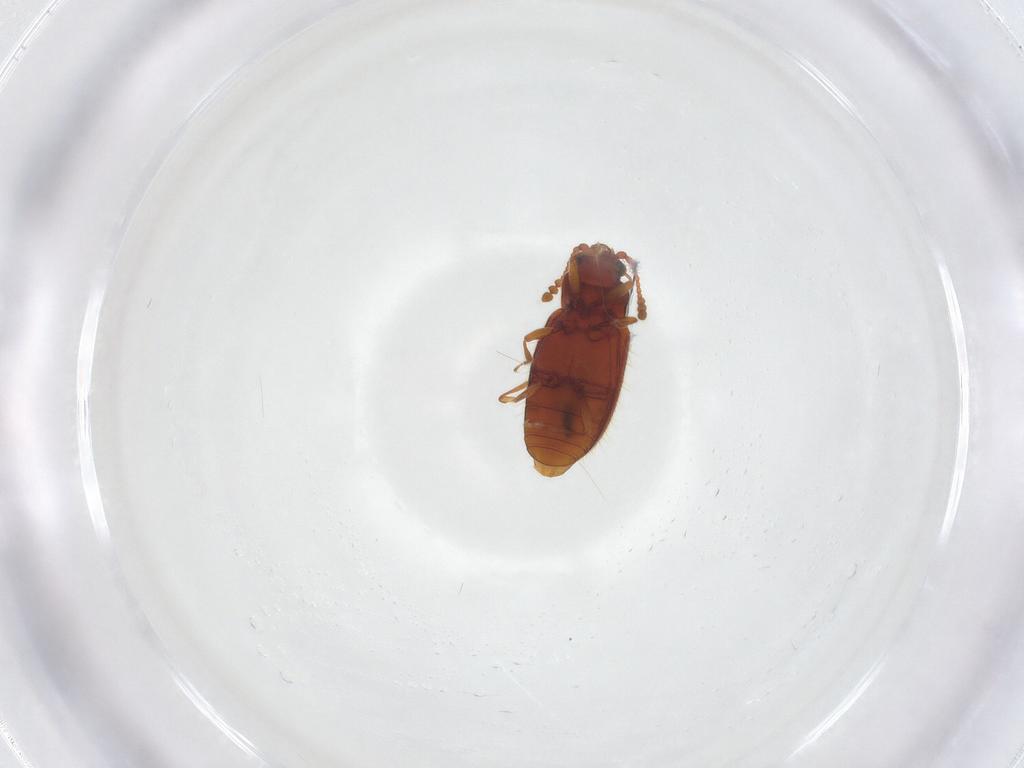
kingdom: Animalia
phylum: Arthropoda
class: Insecta
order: Coleoptera
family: Cryptophagidae
